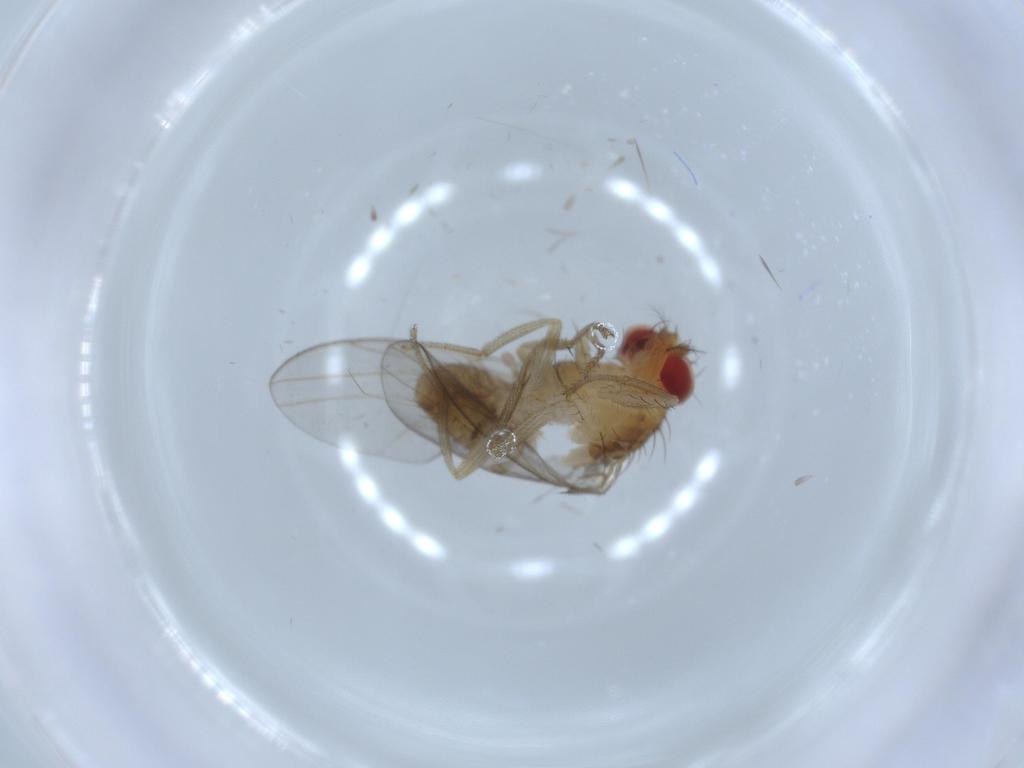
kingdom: Animalia
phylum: Arthropoda
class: Insecta
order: Diptera
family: Drosophilidae
